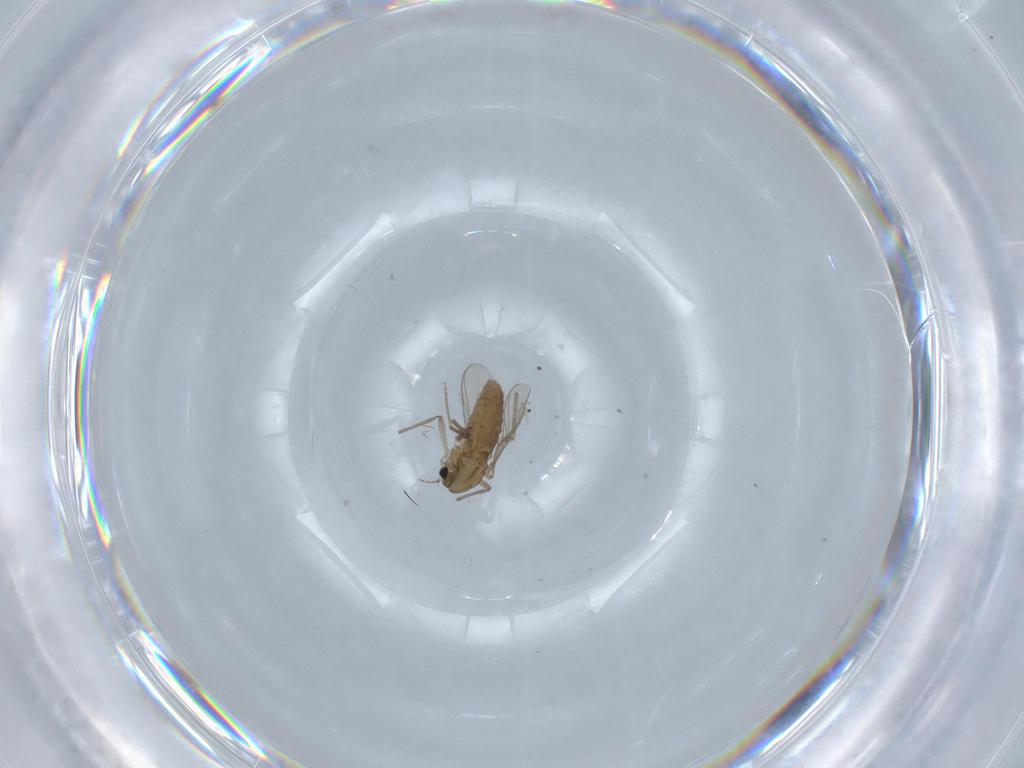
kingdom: Animalia
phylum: Arthropoda
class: Insecta
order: Diptera
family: Chironomidae
